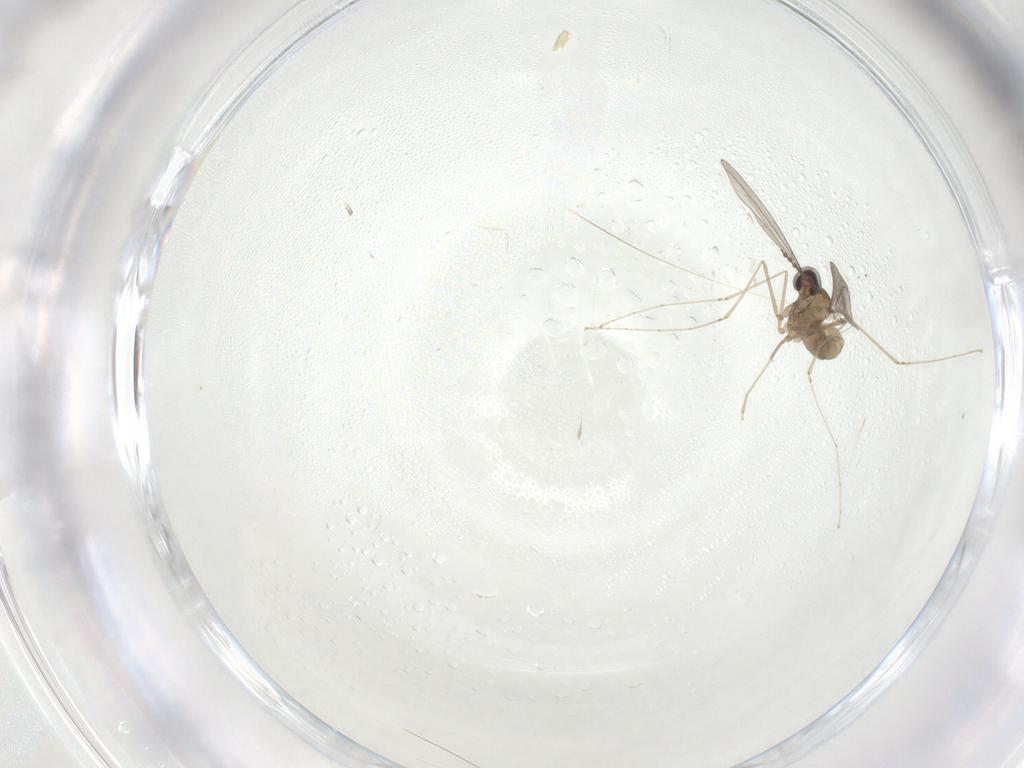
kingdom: Animalia
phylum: Arthropoda
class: Insecta
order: Diptera
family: Cecidomyiidae
